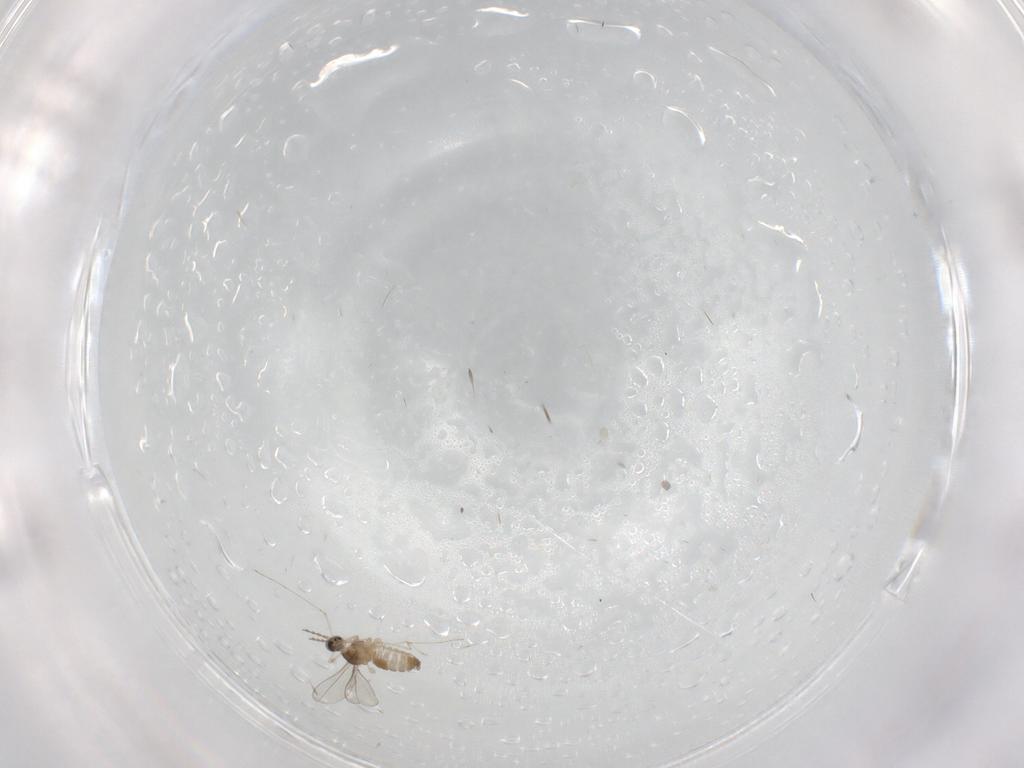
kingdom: Animalia
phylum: Arthropoda
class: Insecta
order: Diptera
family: Cecidomyiidae
